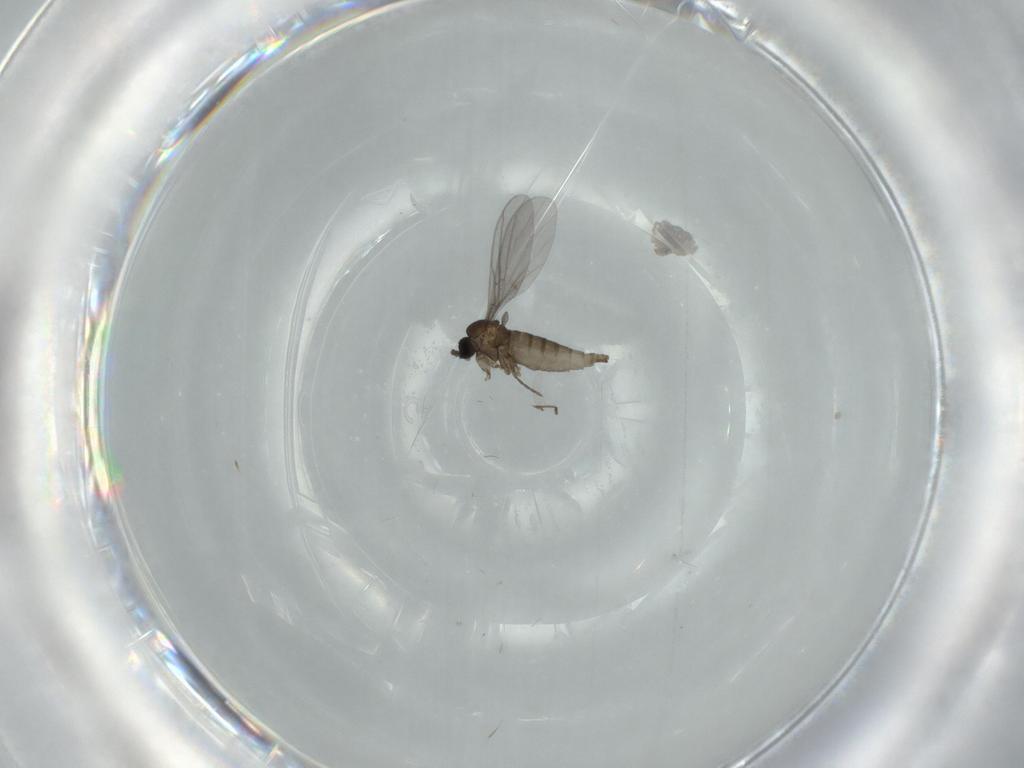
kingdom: Animalia
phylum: Arthropoda
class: Insecta
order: Diptera
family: Sciaridae
